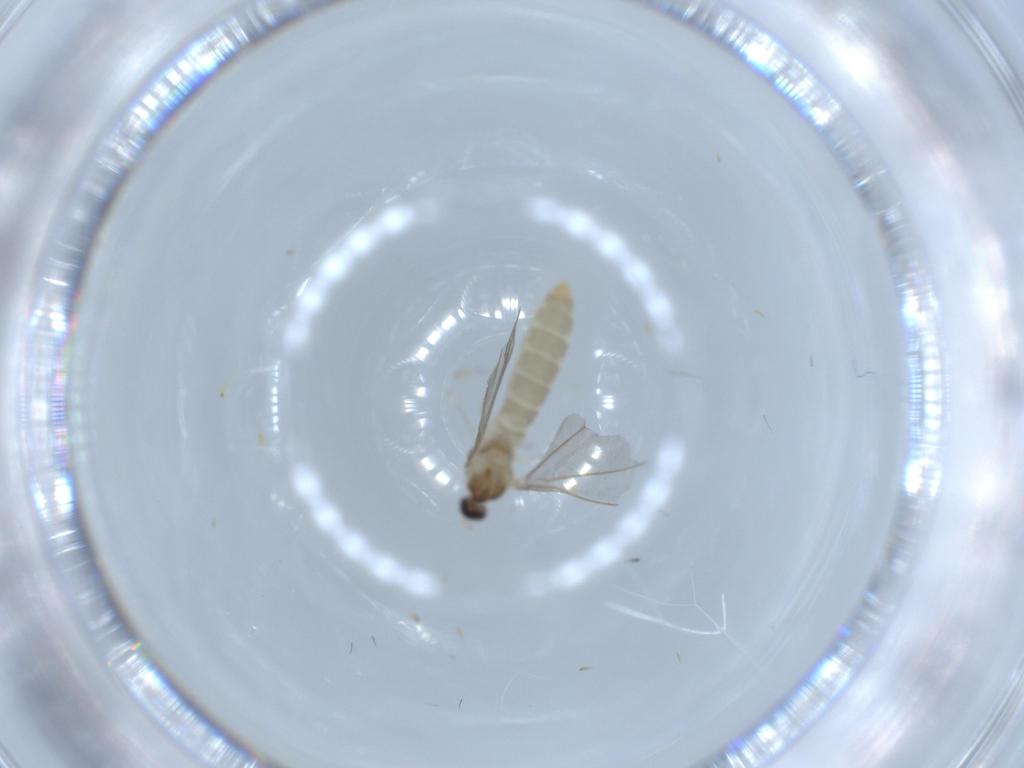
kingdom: Animalia
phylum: Arthropoda
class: Insecta
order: Diptera
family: Cecidomyiidae
